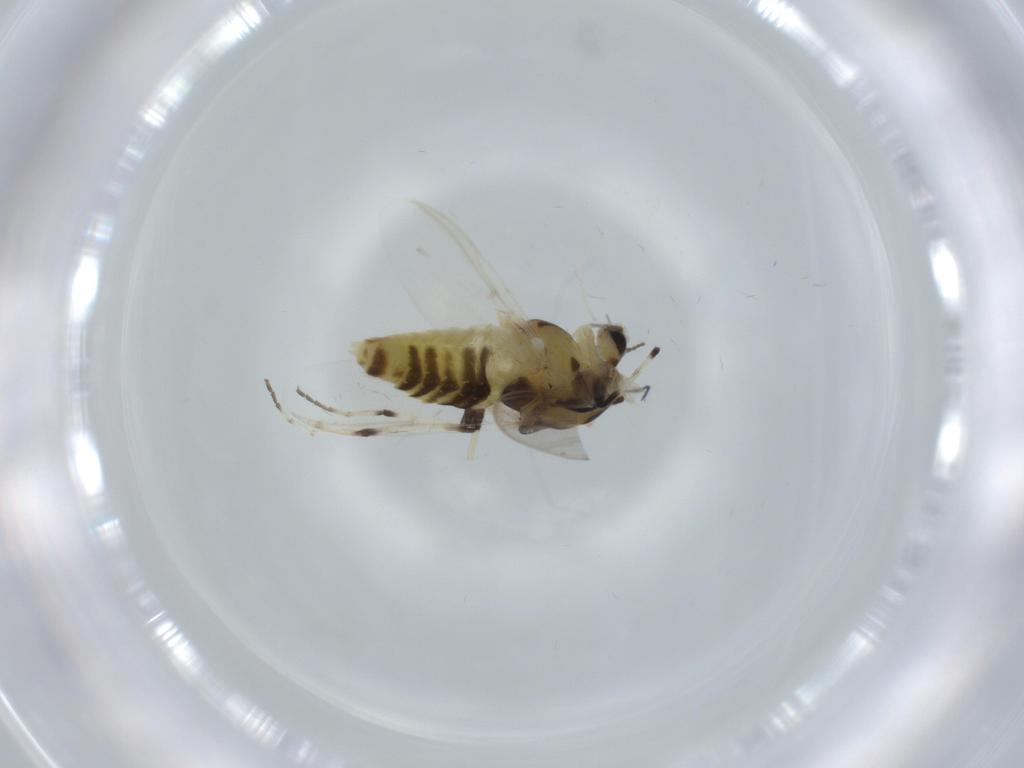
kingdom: Animalia
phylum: Arthropoda
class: Insecta
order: Diptera
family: Chironomidae
